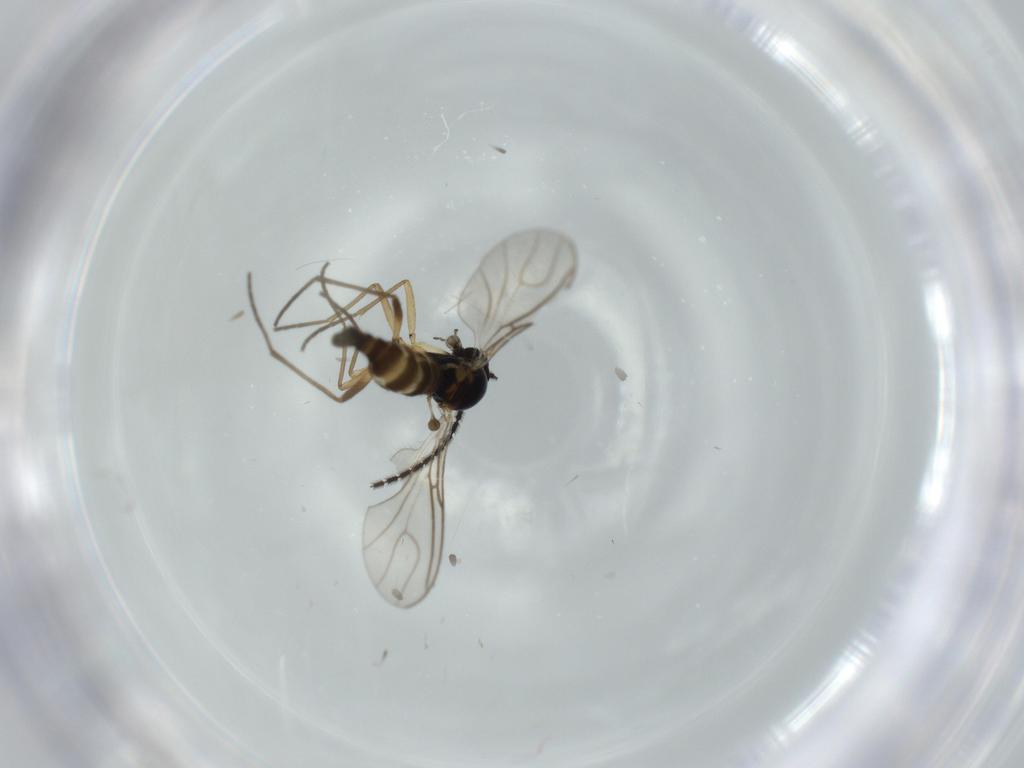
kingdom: Animalia
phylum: Arthropoda
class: Insecta
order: Diptera
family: Sciaridae
